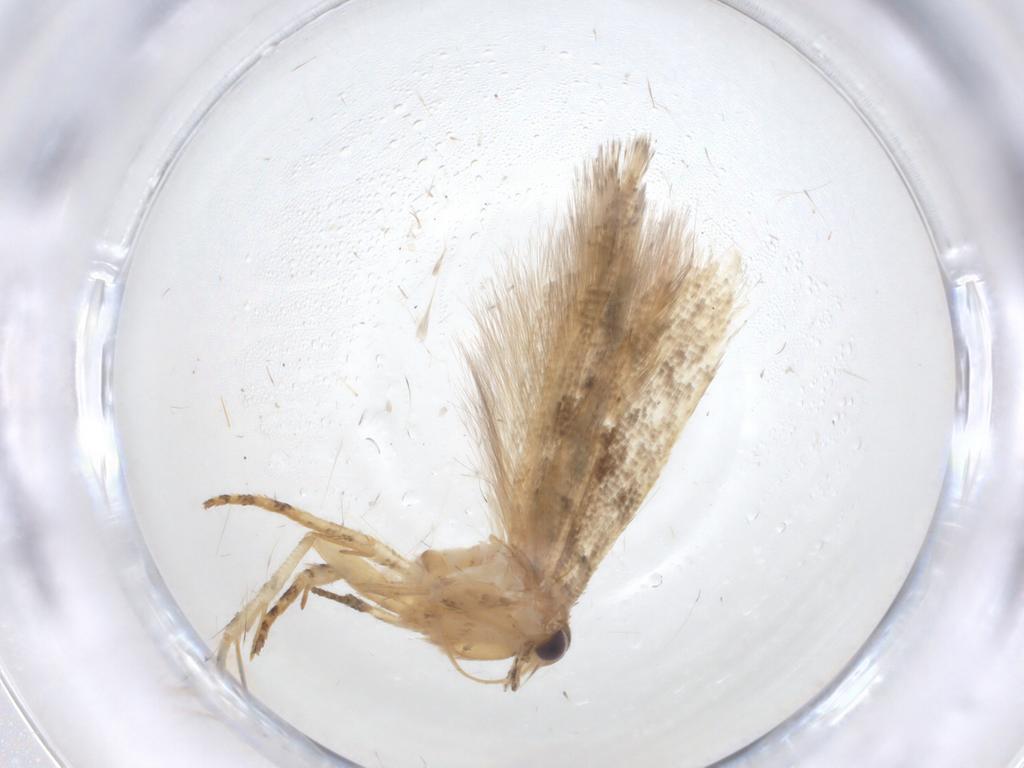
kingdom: Animalia
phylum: Arthropoda
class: Insecta
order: Lepidoptera
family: Gelechiidae
